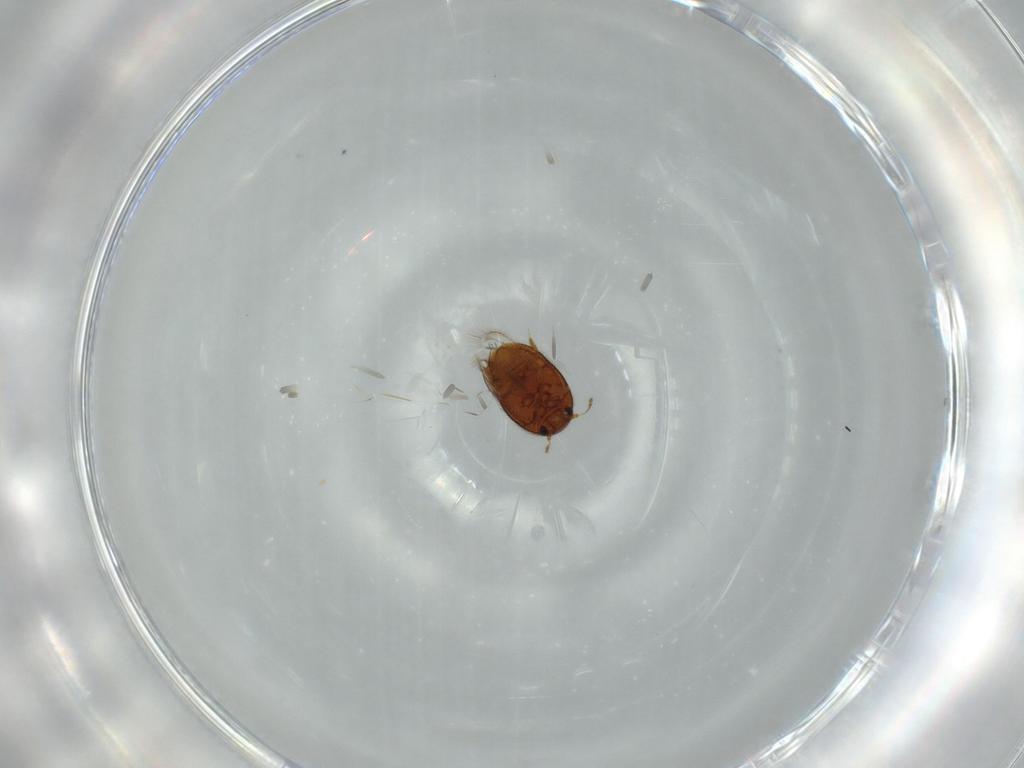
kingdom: Animalia
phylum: Arthropoda
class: Insecta
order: Coleoptera
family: Ptiliidae
